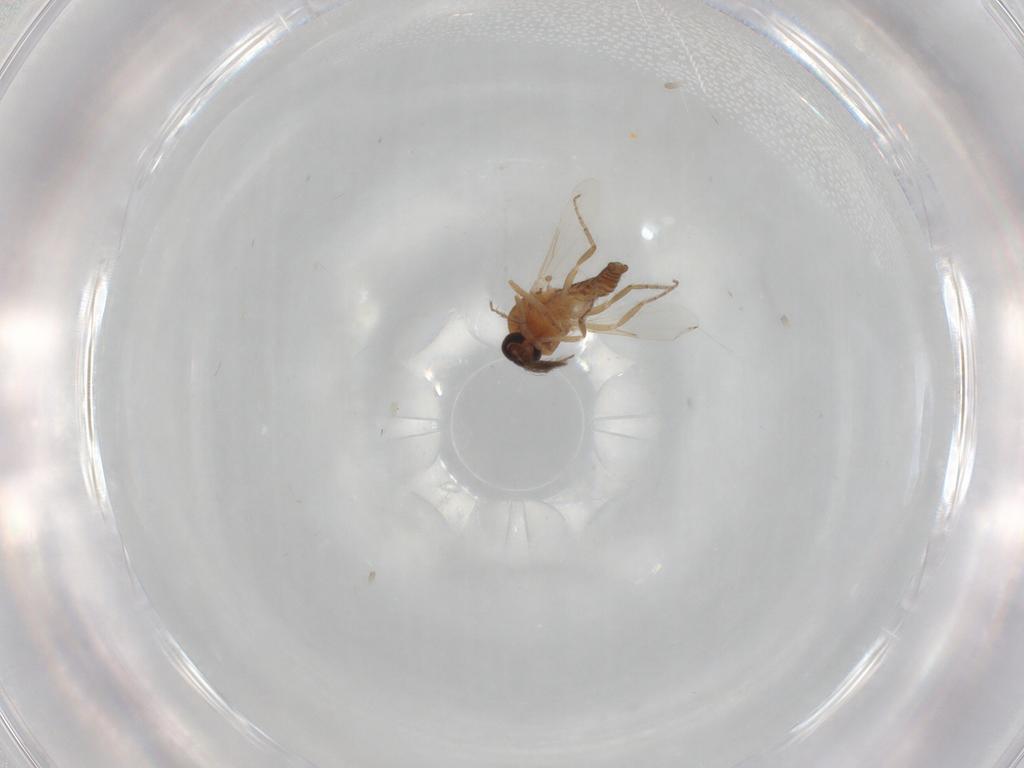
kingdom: Animalia
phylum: Arthropoda
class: Insecta
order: Diptera
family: Ceratopogonidae
